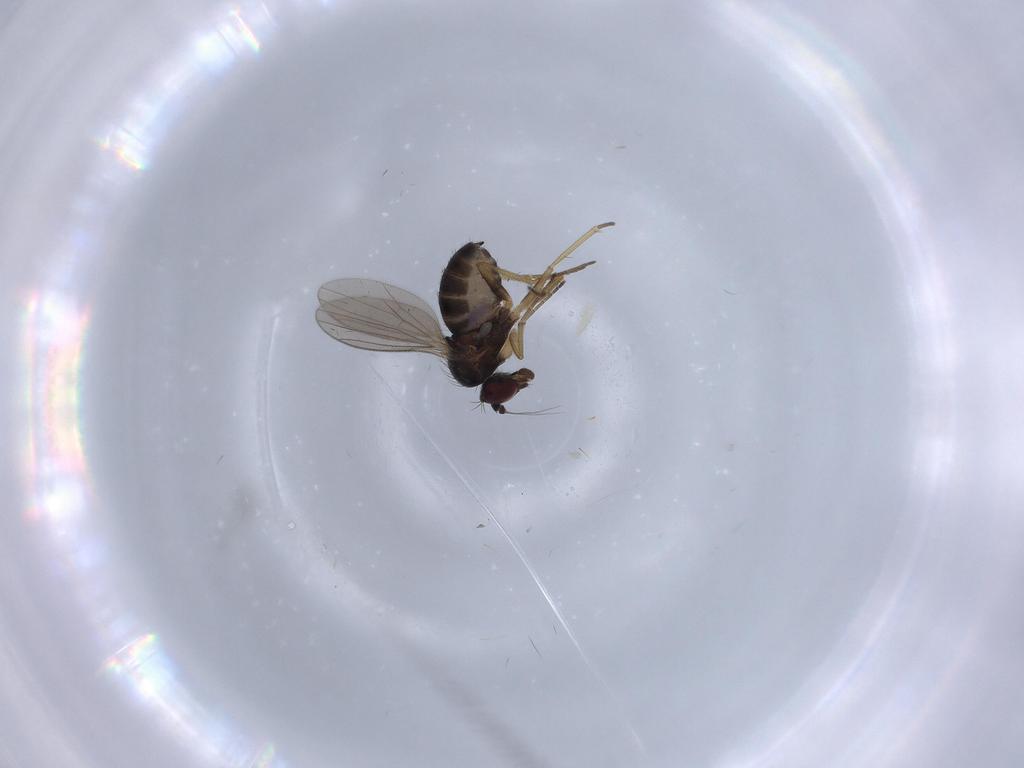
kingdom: Animalia
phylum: Arthropoda
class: Insecta
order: Diptera
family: Dolichopodidae
